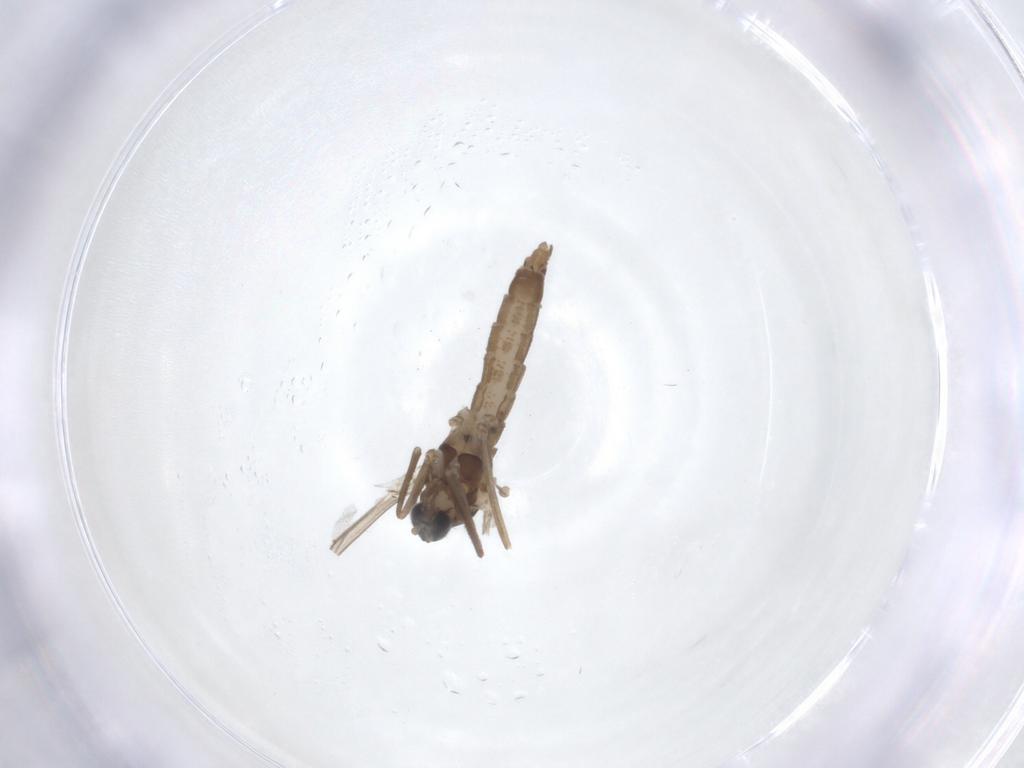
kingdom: Animalia
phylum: Arthropoda
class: Insecta
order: Diptera
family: Cecidomyiidae
